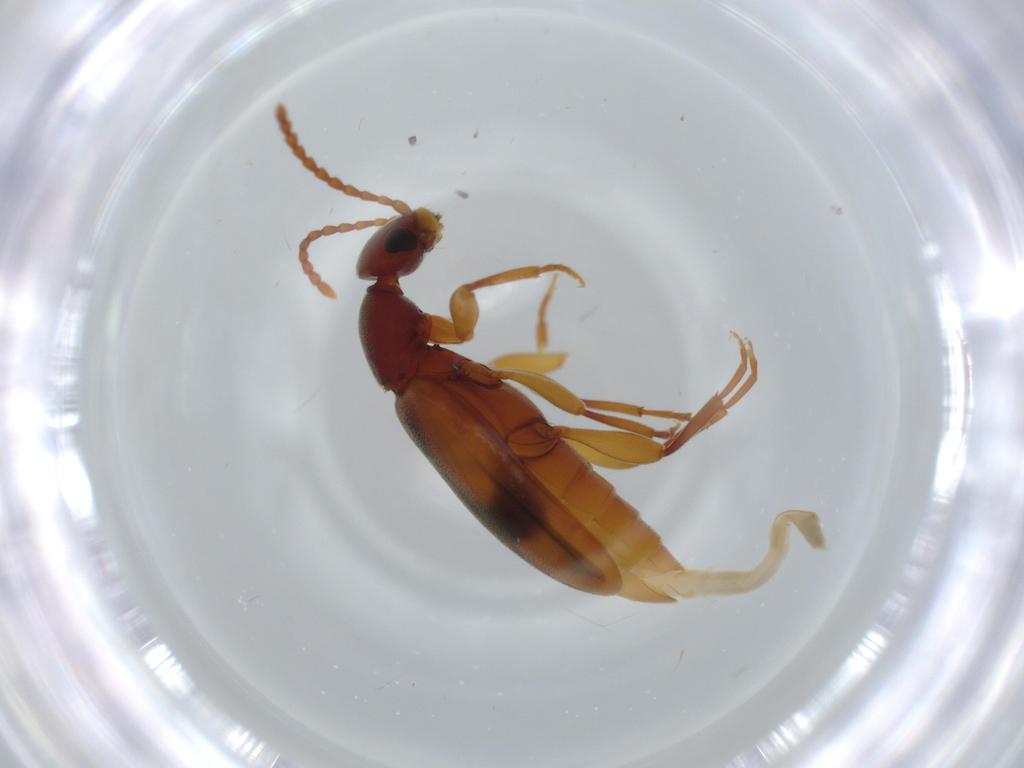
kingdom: Animalia
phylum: Arthropoda
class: Insecta
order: Coleoptera
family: Anthicidae
